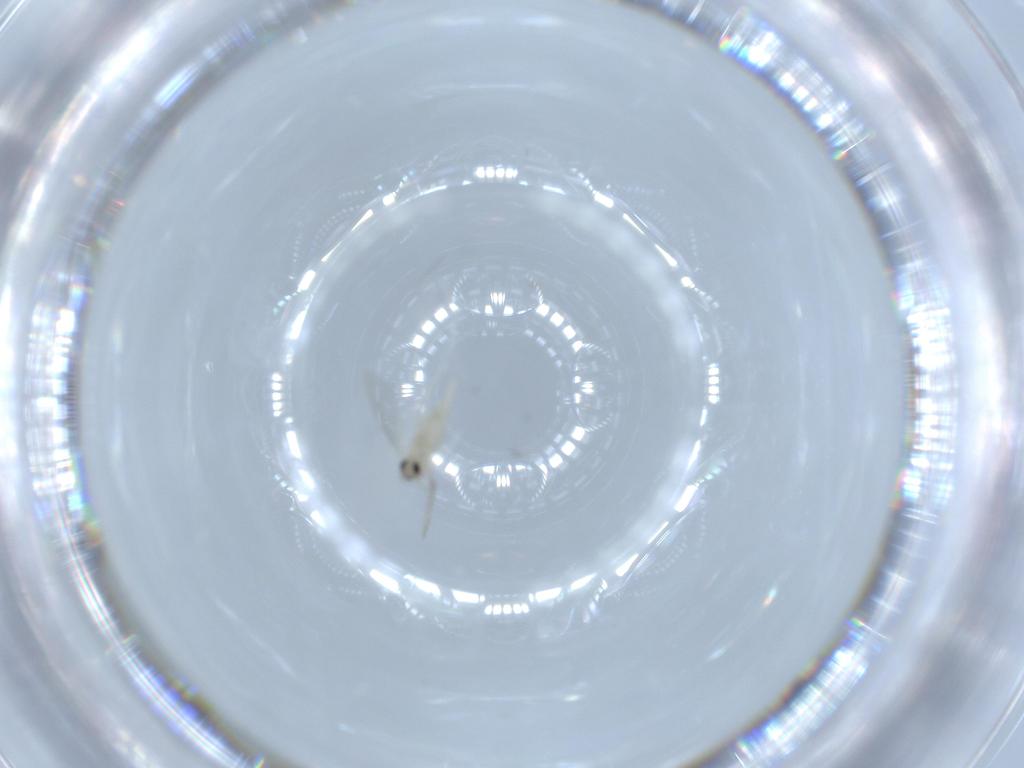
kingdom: Animalia
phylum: Arthropoda
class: Insecta
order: Diptera
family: Cecidomyiidae
